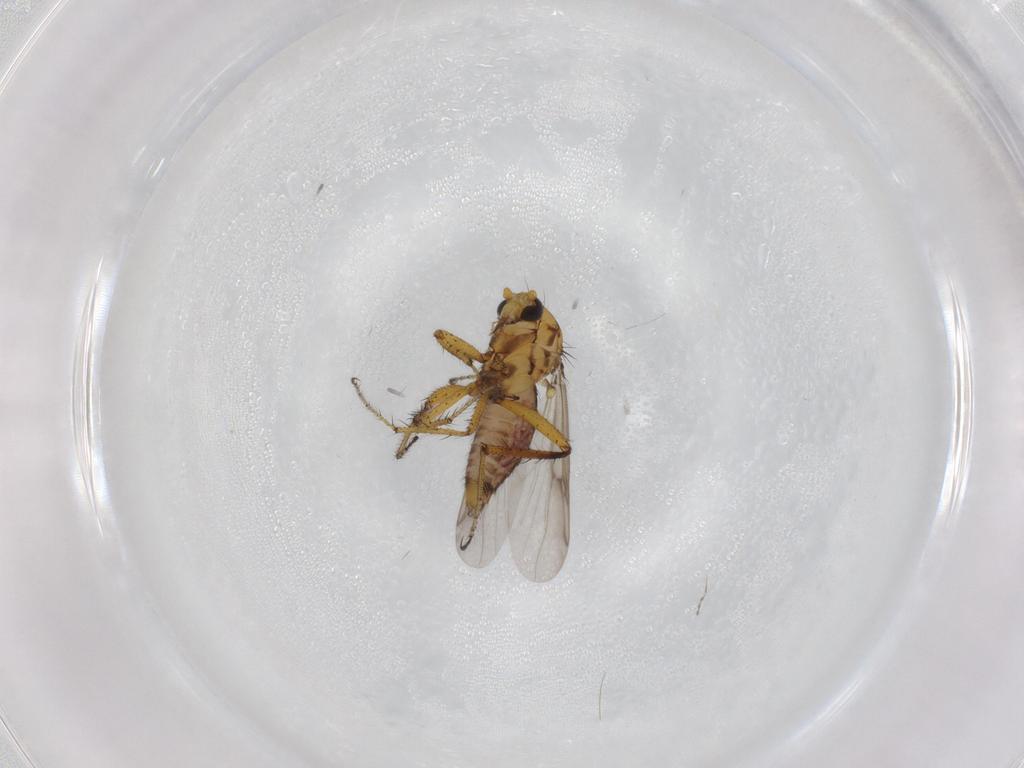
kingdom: Animalia
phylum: Arthropoda
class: Insecta
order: Diptera
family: Ceratopogonidae
